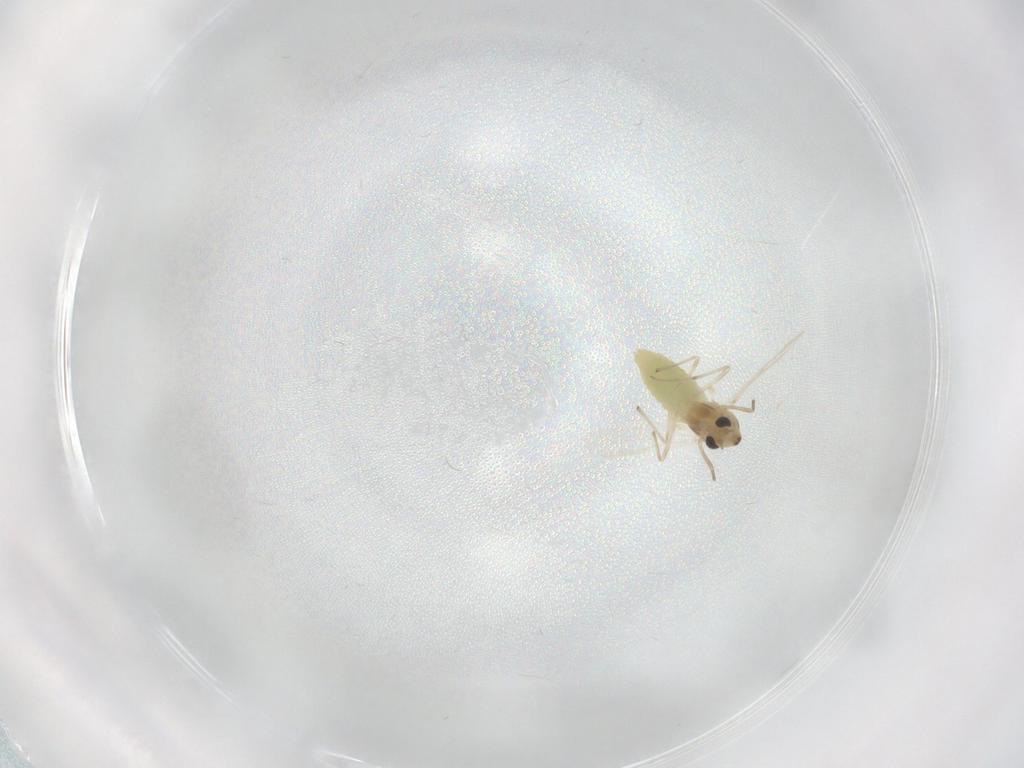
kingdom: Animalia
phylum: Arthropoda
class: Insecta
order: Diptera
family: Chironomidae
